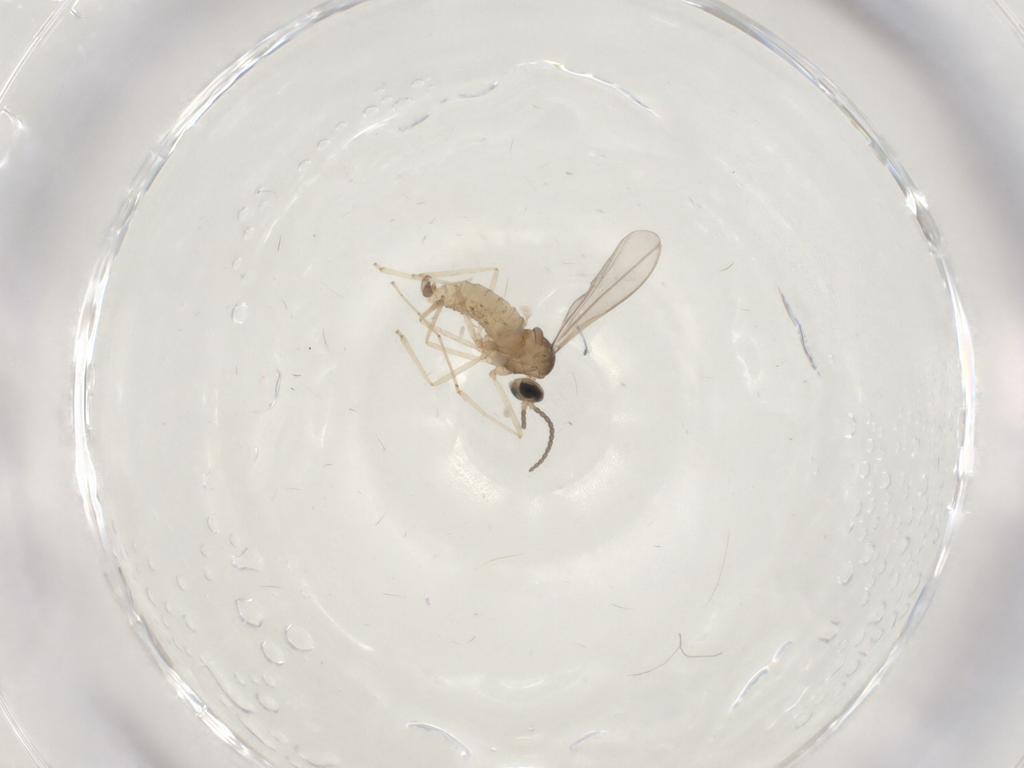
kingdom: Animalia
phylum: Arthropoda
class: Insecta
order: Diptera
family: Cecidomyiidae
